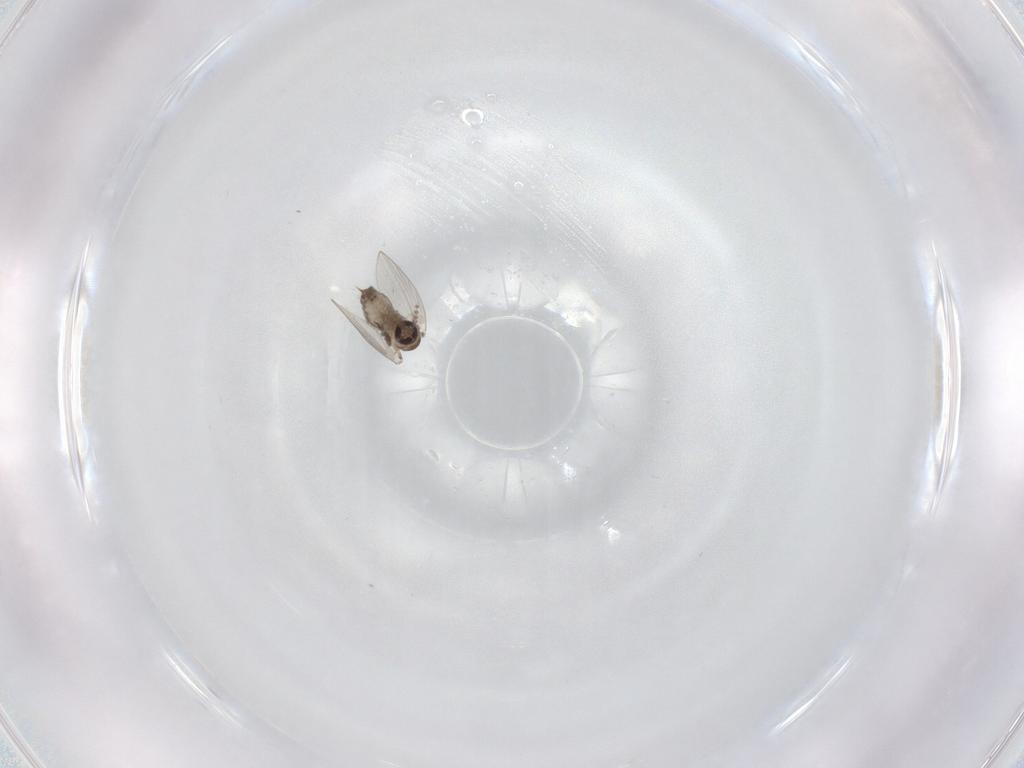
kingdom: Animalia
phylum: Arthropoda
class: Insecta
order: Diptera
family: Psychodidae
